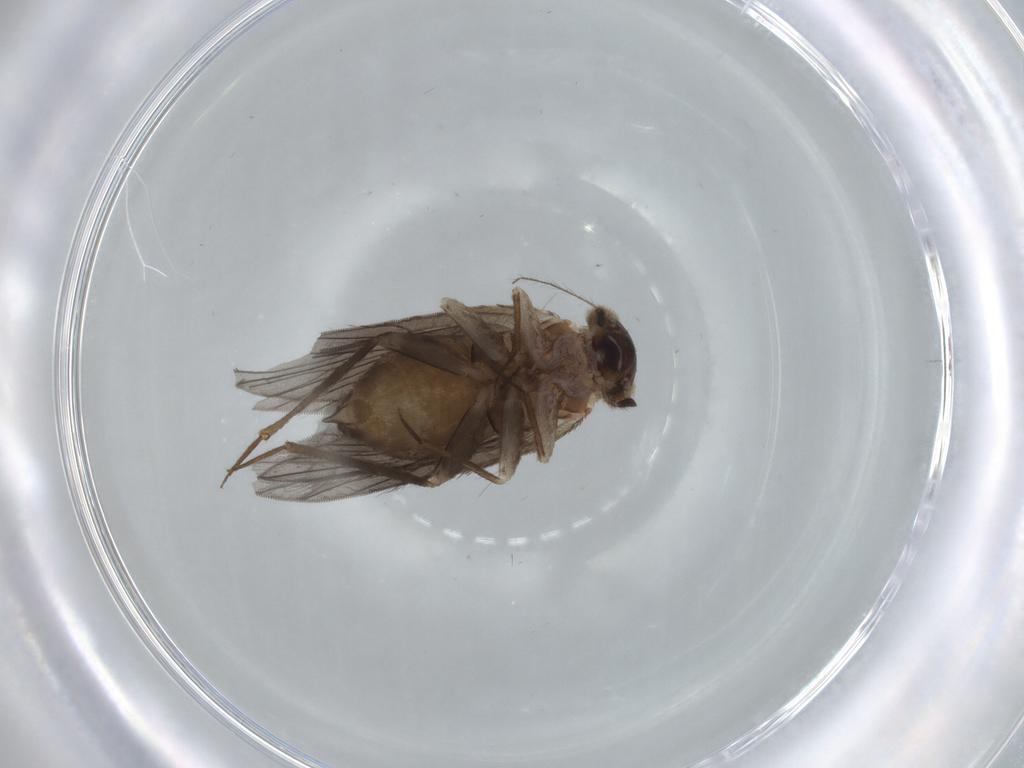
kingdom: Animalia
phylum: Arthropoda
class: Insecta
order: Psocodea
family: Lepidopsocidae
